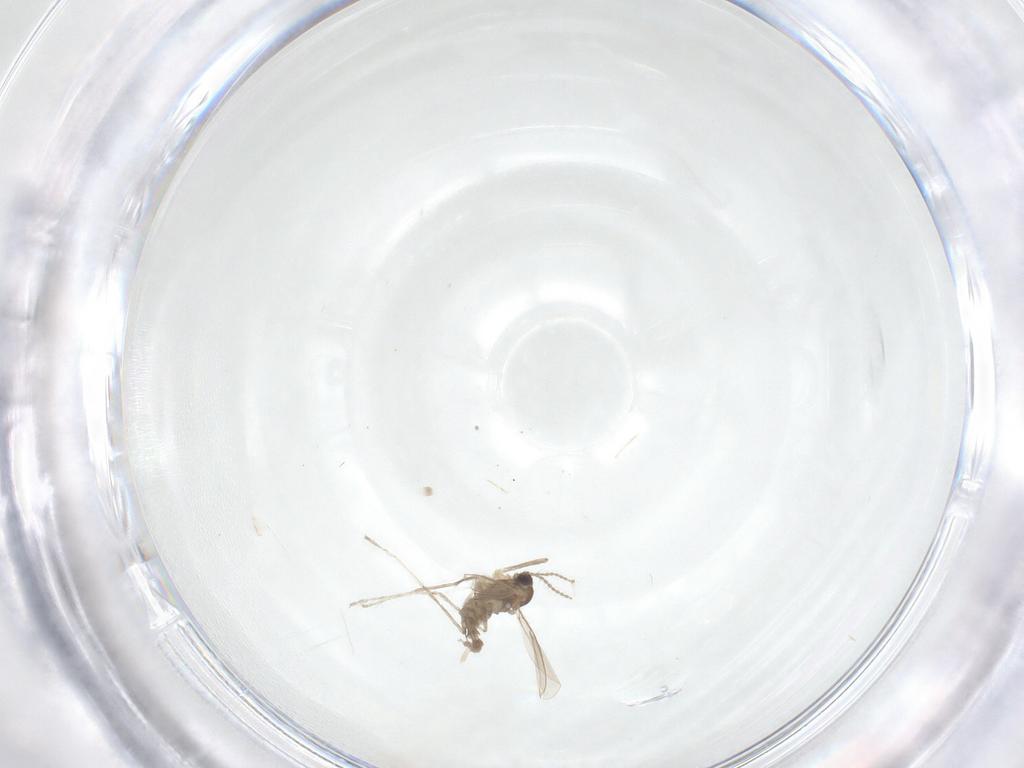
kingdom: Animalia
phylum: Arthropoda
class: Insecta
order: Diptera
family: Cecidomyiidae
